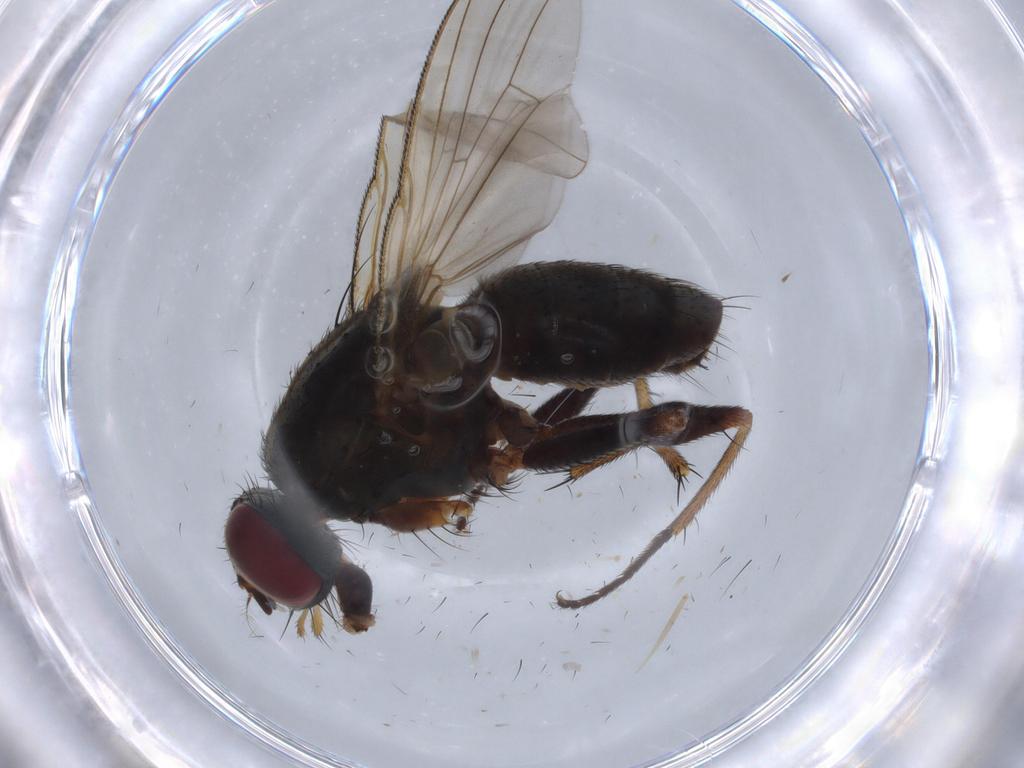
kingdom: Animalia
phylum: Arthropoda
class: Insecta
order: Diptera
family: Muscidae
